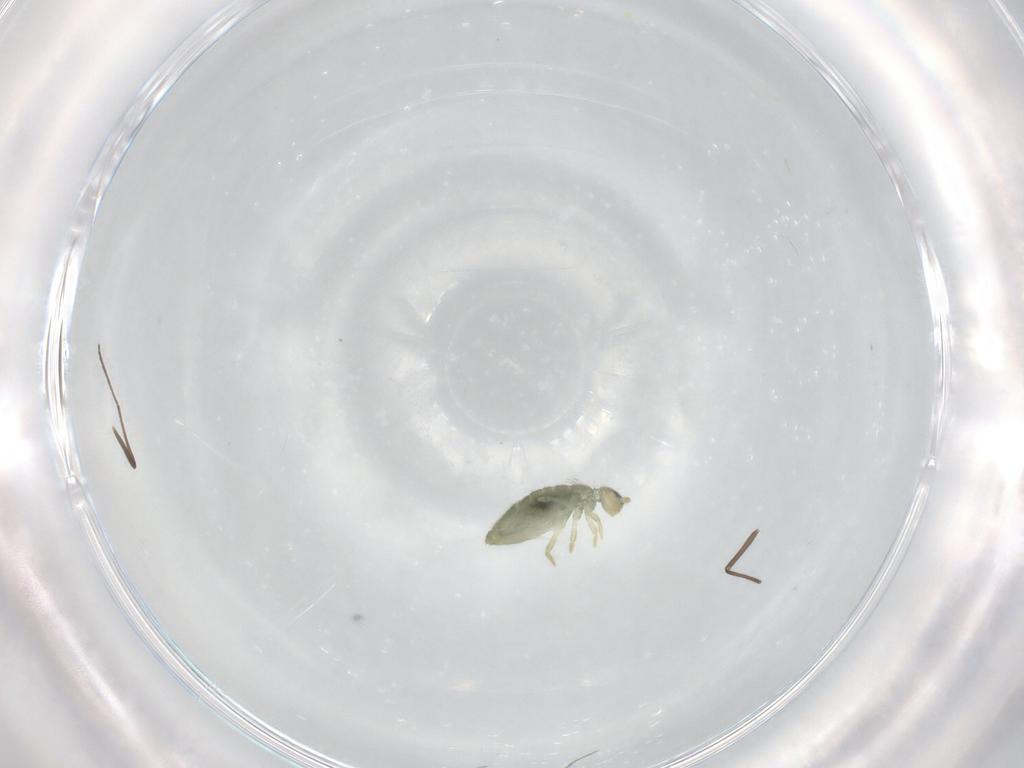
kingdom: Animalia
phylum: Arthropoda
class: Collembola
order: Entomobryomorpha
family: Entomobryidae
